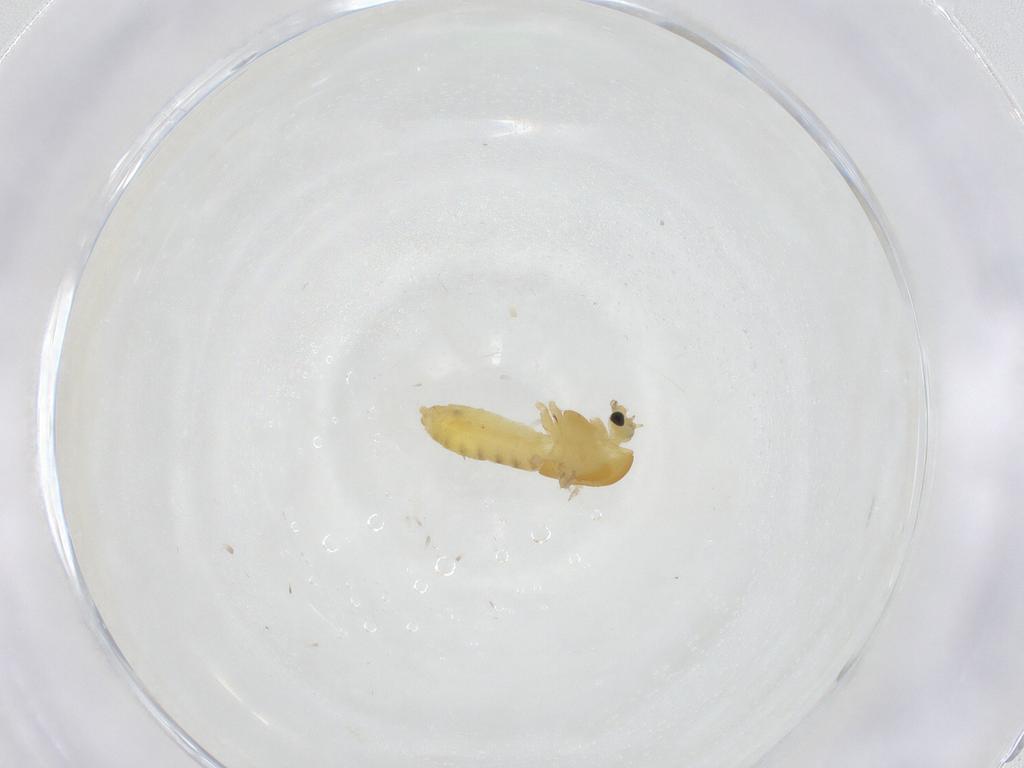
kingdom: Animalia
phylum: Arthropoda
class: Insecta
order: Diptera
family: Chironomidae
